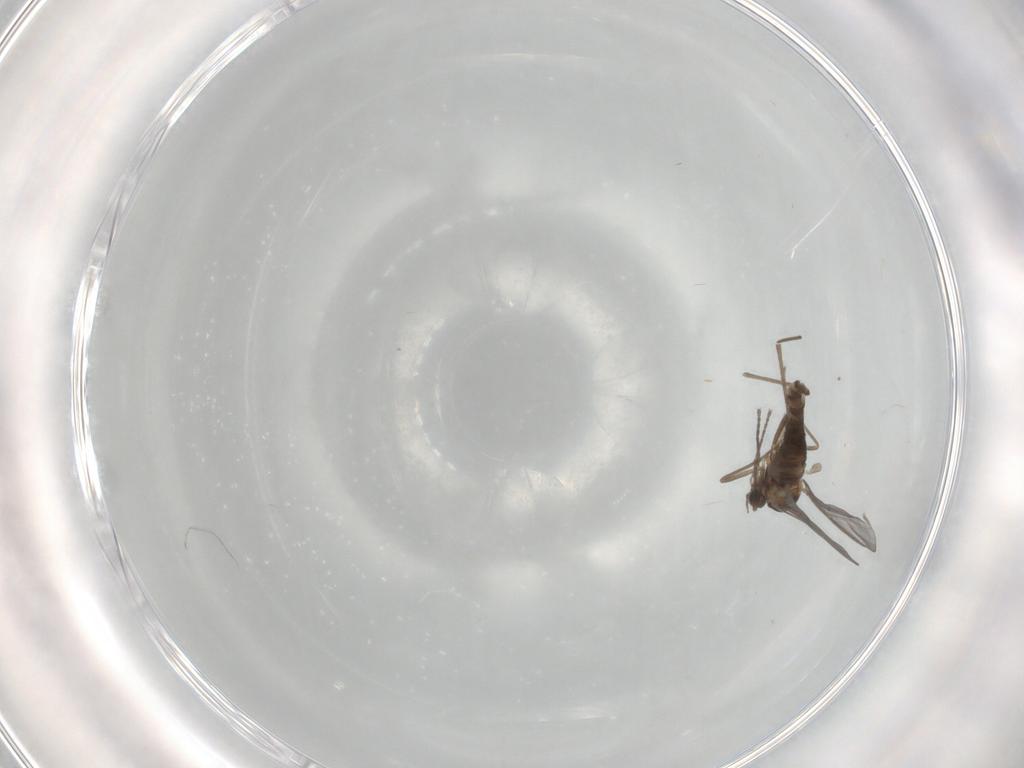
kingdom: Animalia
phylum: Arthropoda
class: Insecta
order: Diptera
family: Cecidomyiidae
